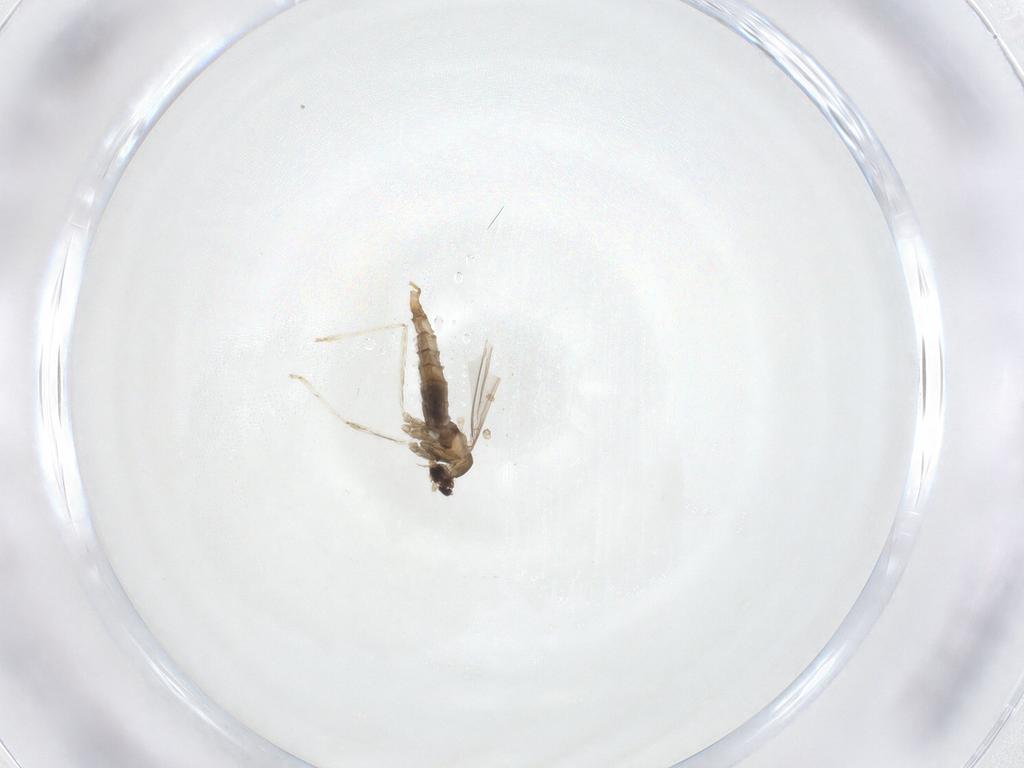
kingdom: Animalia
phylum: Arthropoda
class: Insecta
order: Diptera
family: Cecidomyiidae
